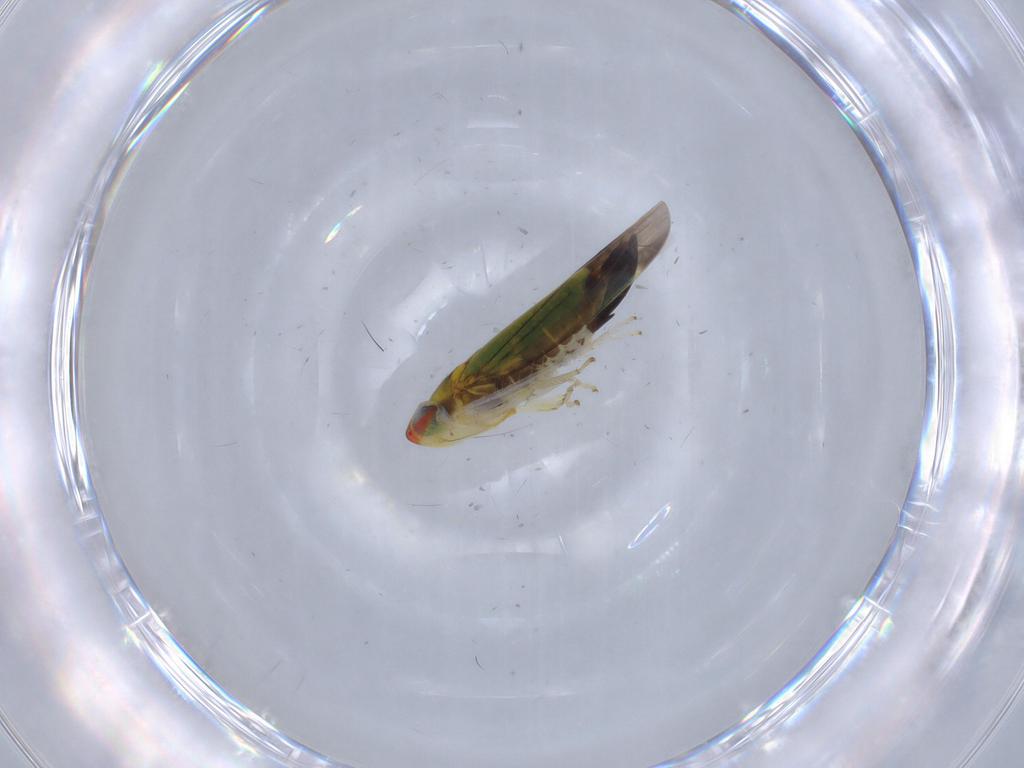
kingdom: Animalia
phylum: Arthropoda
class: Insecta
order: Hemiptera
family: Cicadellidae
